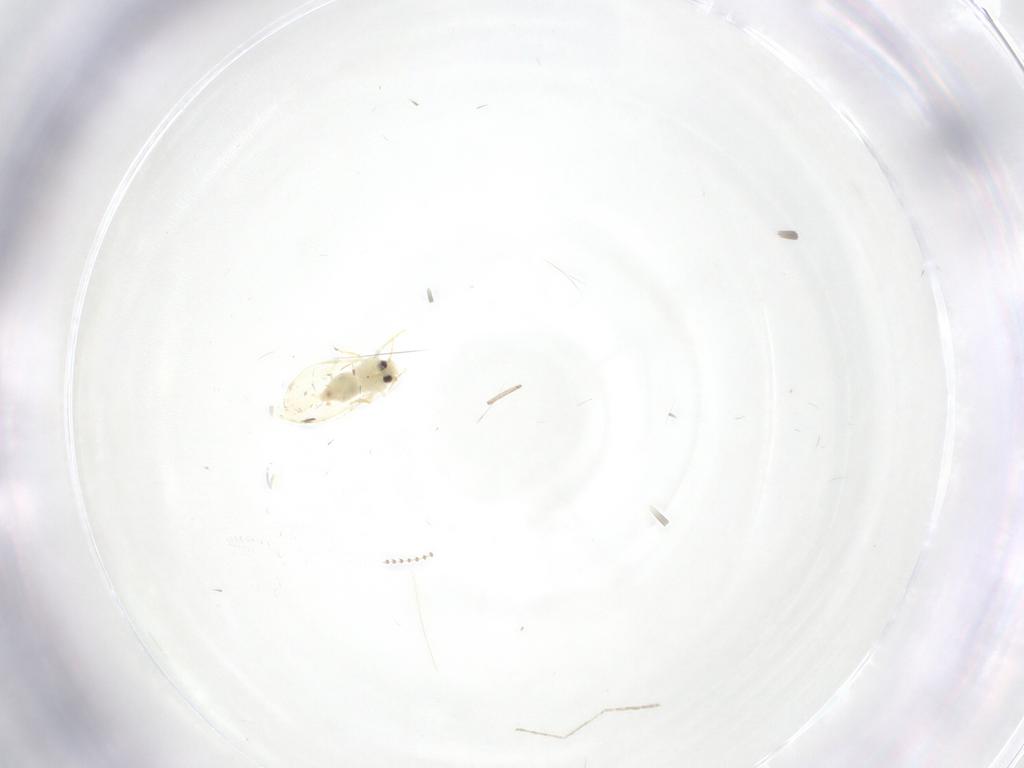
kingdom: Animalia
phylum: Arthropoda
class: Insecta
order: Hemiptera
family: Aleyrodidae
